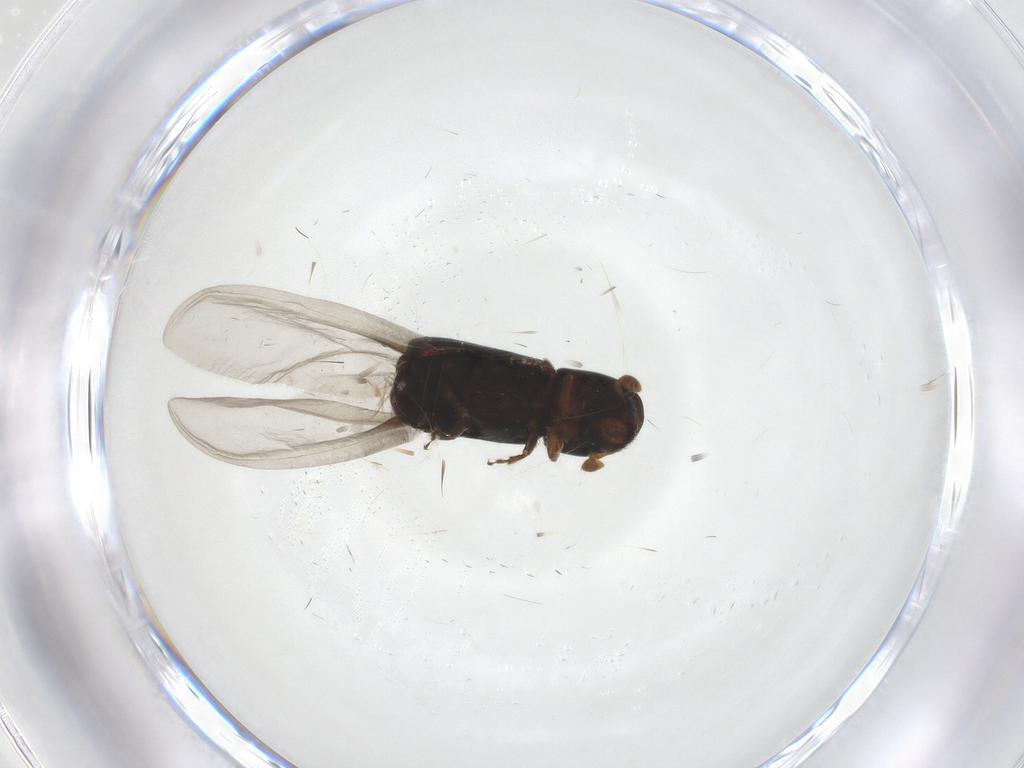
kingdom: Animalia
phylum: Arthropoda
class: Insecta
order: Coleoptera
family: Curculionidae
